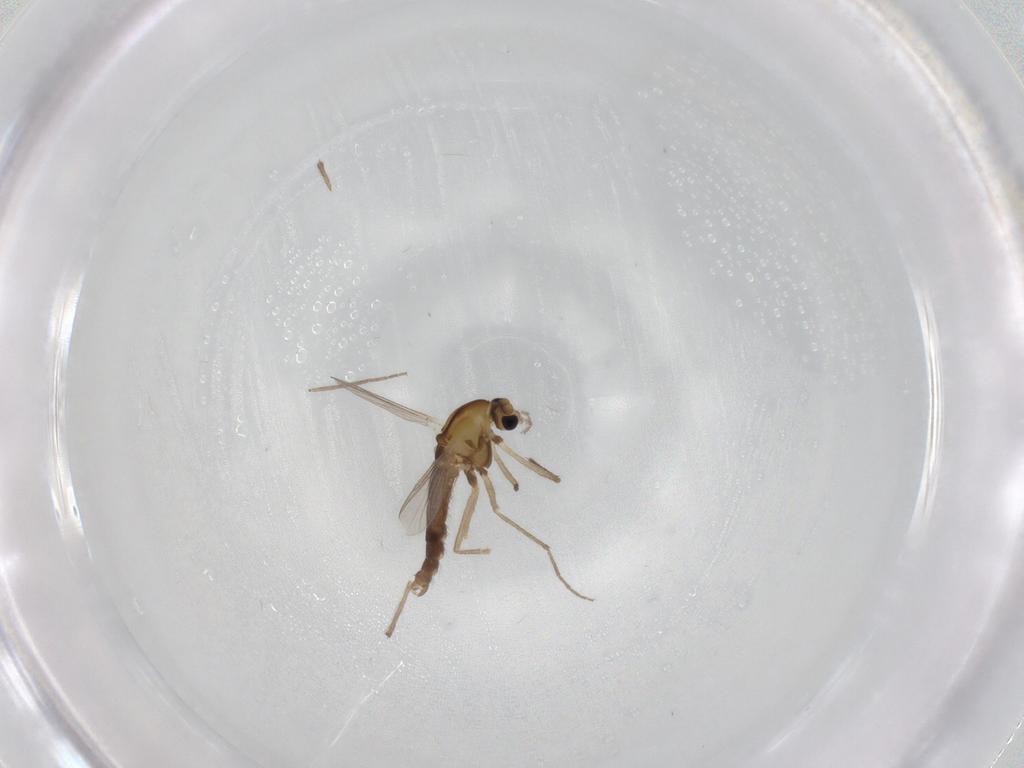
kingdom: Animalia
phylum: Arthropoda
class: Insecta
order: Diptera
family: Chironomidae
